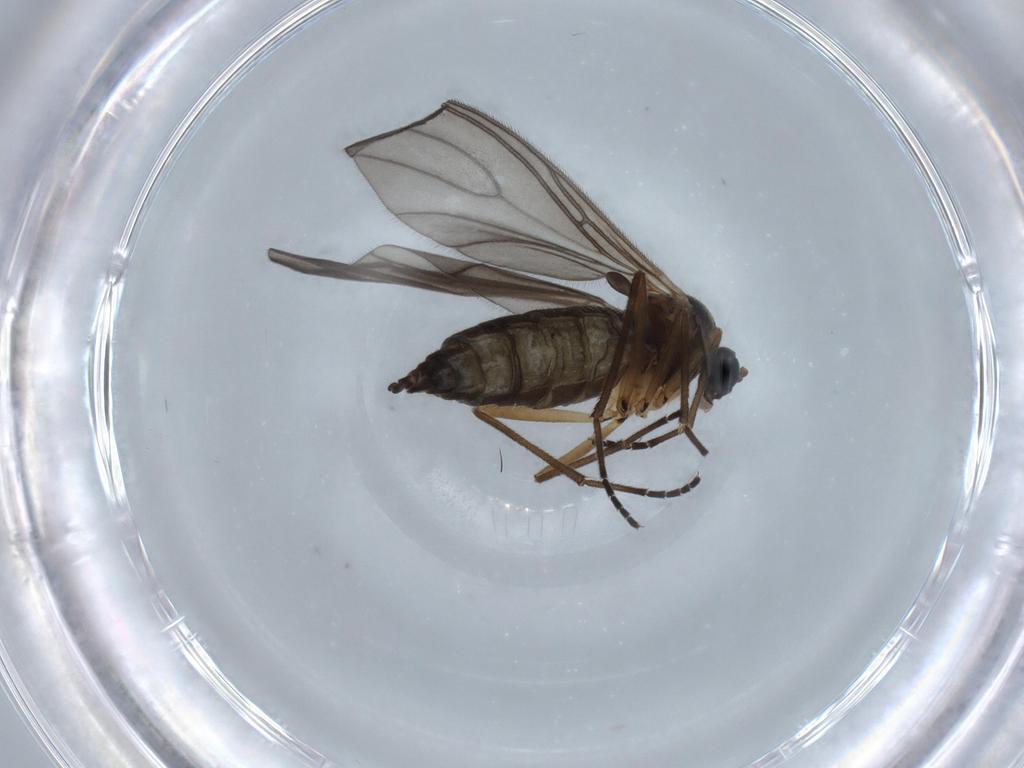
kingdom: Animalia
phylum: Arthropoda
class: Insecta
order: Diptera
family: Sciaridae
